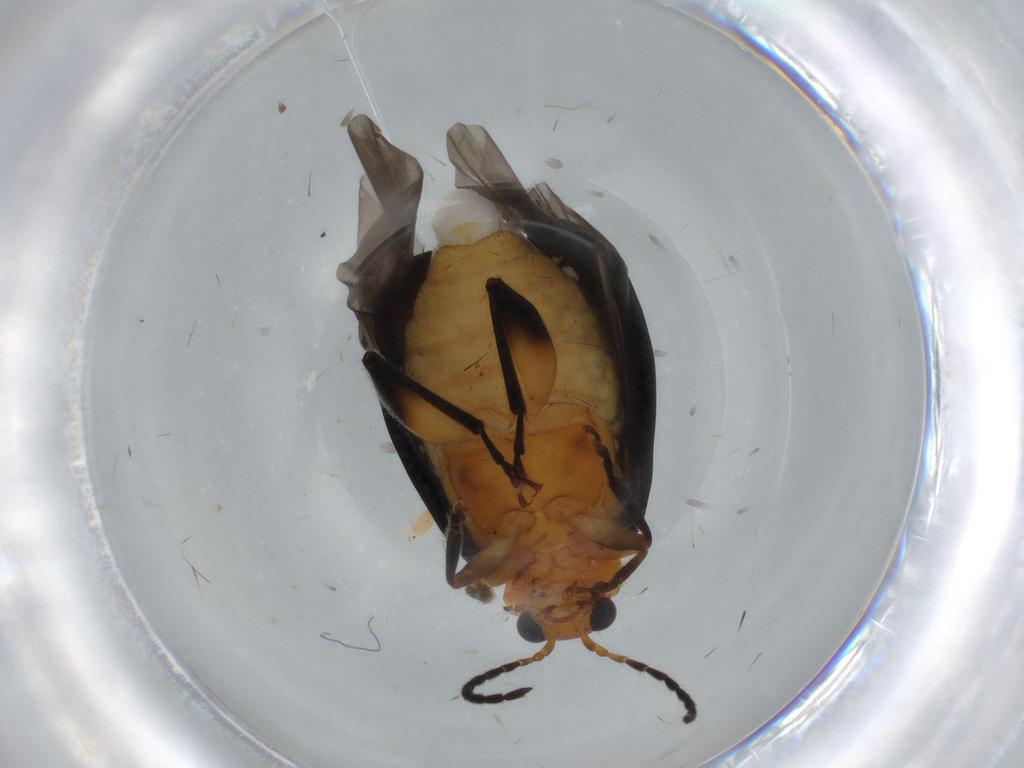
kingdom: Animalia
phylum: Arthropoda
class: Insecta
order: Coleoptera
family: Chrysomelidae
